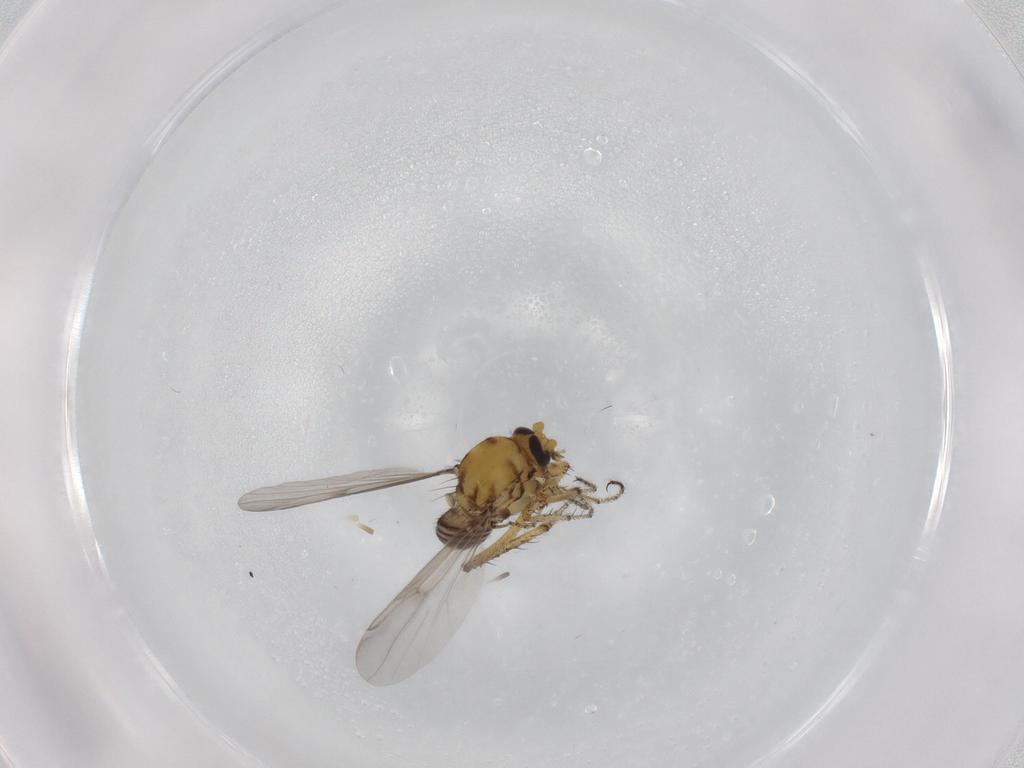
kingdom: Animalia
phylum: Arthropoda
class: Insecta
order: Diptera
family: Ceratopogonidae
